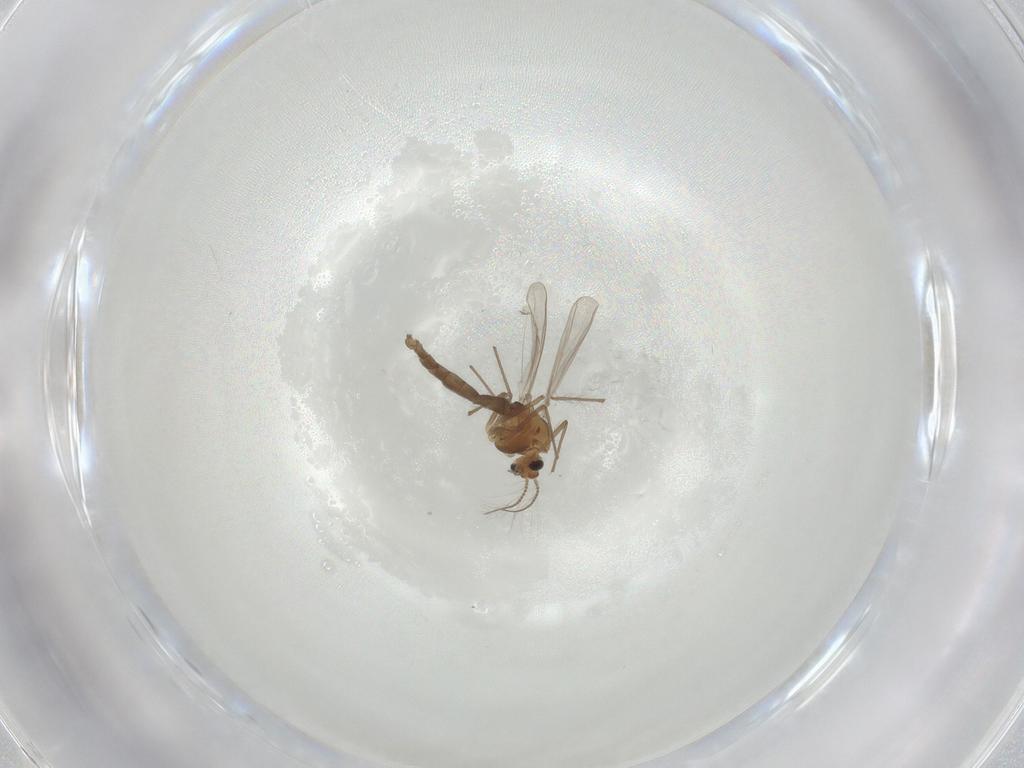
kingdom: Animalia
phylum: Arthropoda
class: Insecta
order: Diptera
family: Chironomidae
